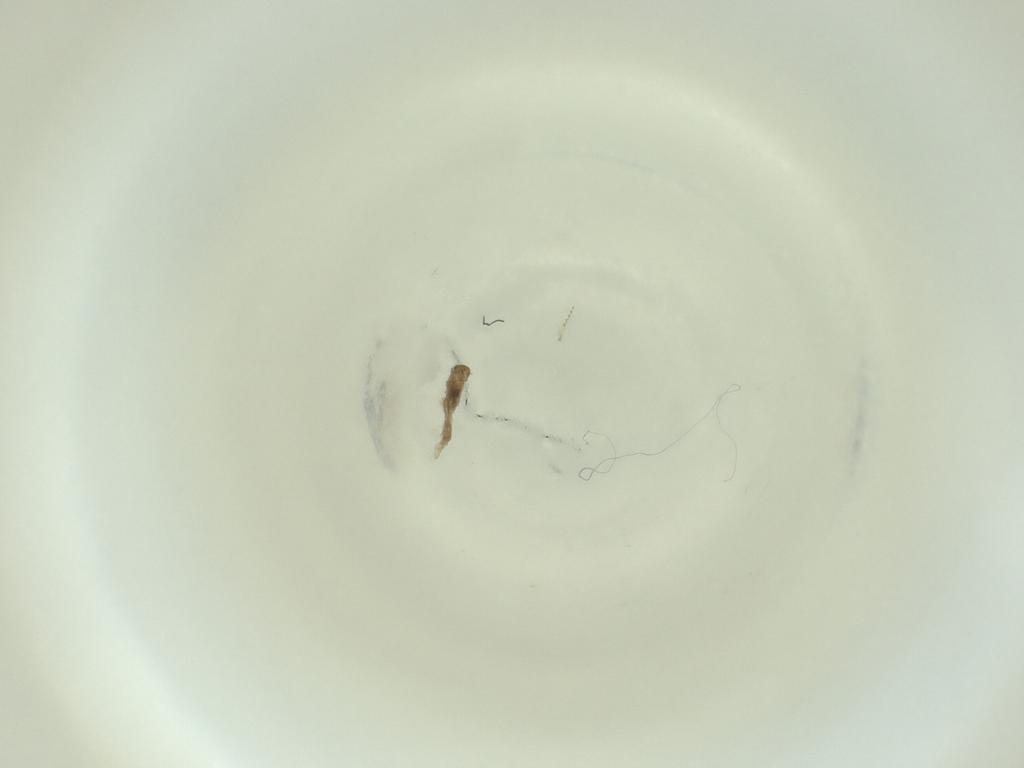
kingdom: Animalia
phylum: Arthropoda
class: Insecta
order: Diptera
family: Cecidomyiidae
